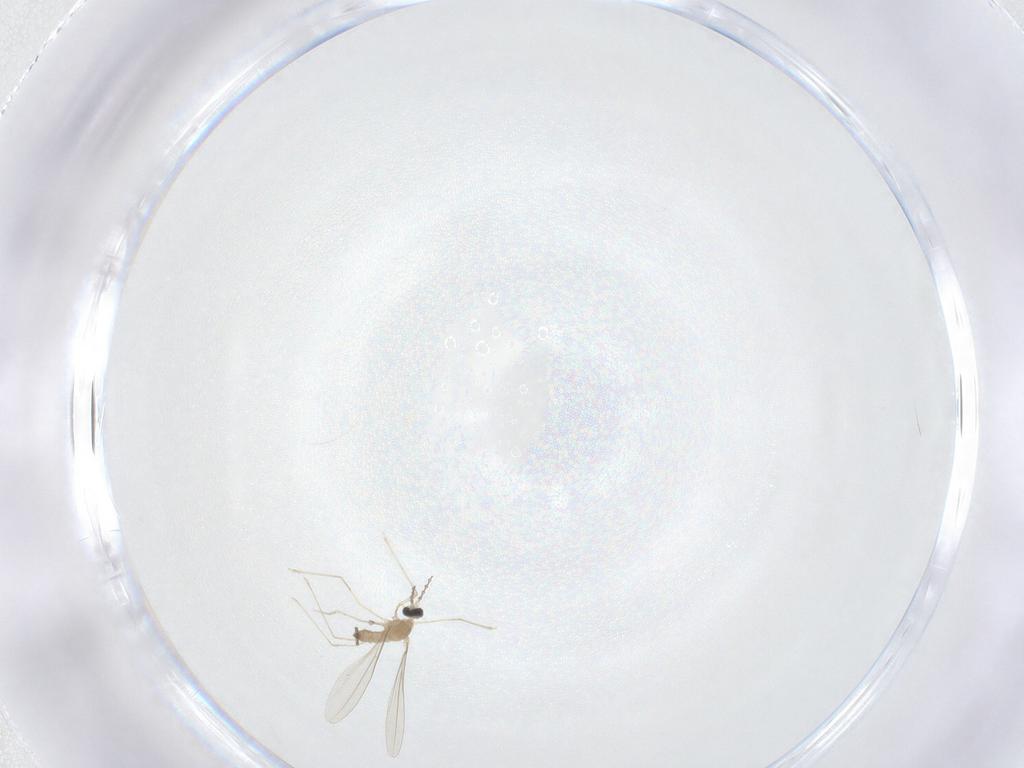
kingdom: Animalia
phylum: Arthropoda
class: Insecta
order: Diptera
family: Cecidomyiidae
